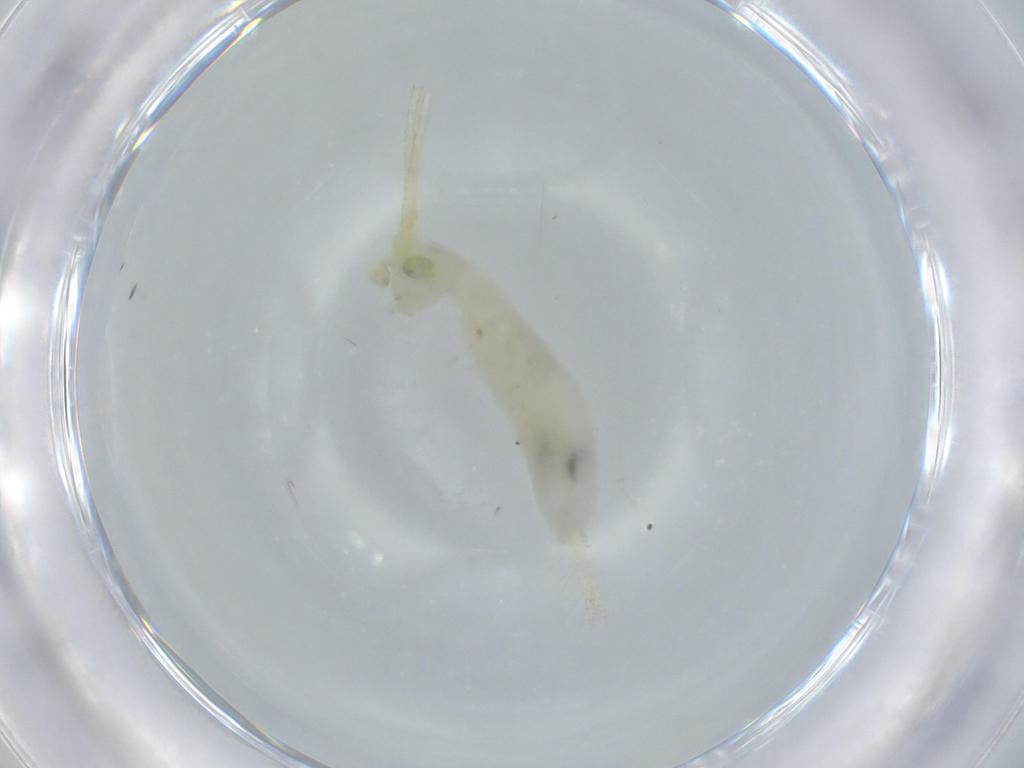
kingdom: Animalia
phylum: Arthropoda
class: Insecta
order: Orthoptera
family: Trigonidiidae
